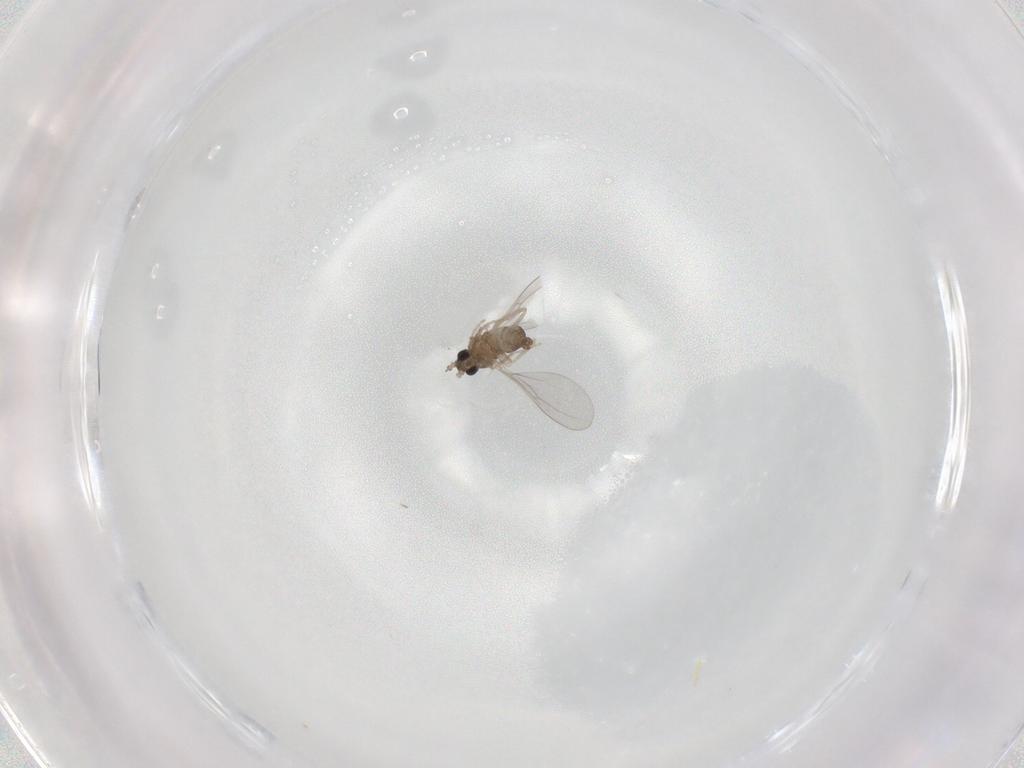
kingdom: Animalia
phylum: Arthropoda
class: Insecta
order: Diptera
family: Cecidomyiidae
